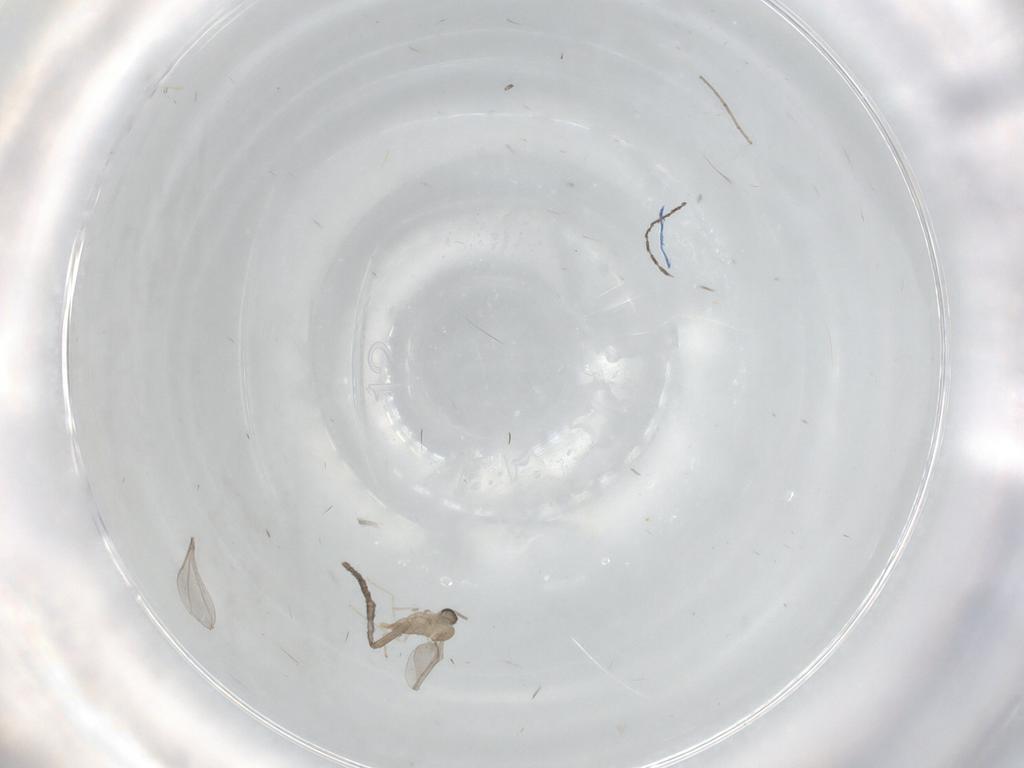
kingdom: Animalia
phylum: Arthropoda
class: Insecta
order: Diptera
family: Psychodidae
